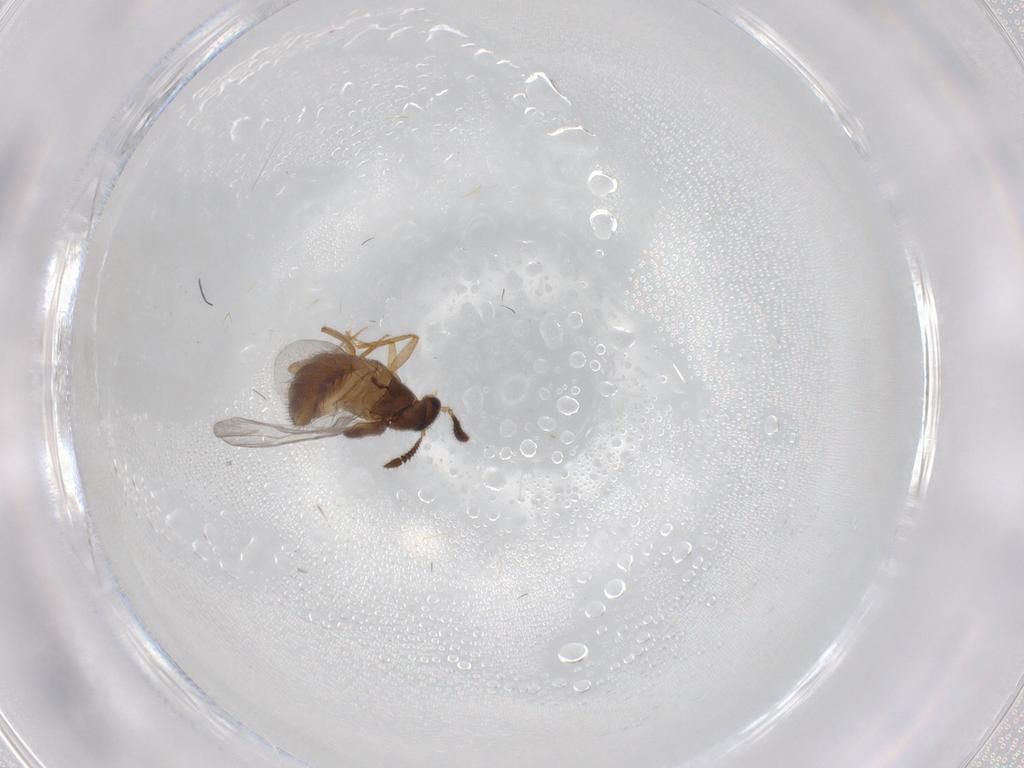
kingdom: Animalia
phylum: Arthropoda
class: Insecta
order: Coleoptera
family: Staphylinidae
